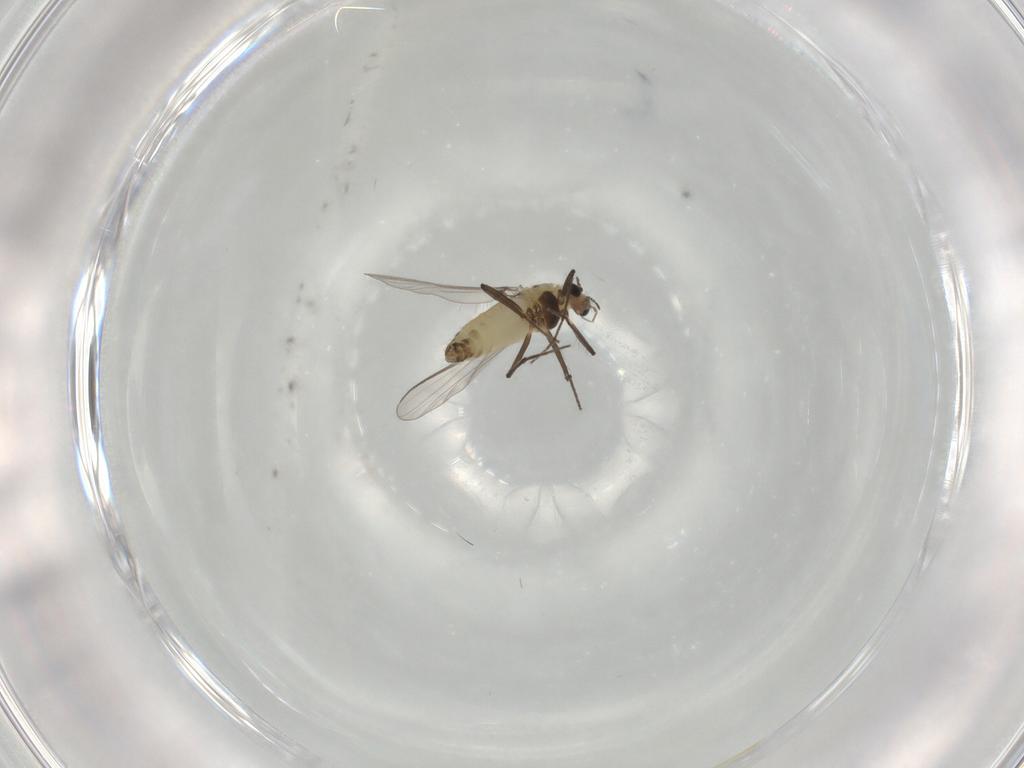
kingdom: Animalia
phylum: Arthropoda
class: Insecta
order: Diptera
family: Chironomidae
